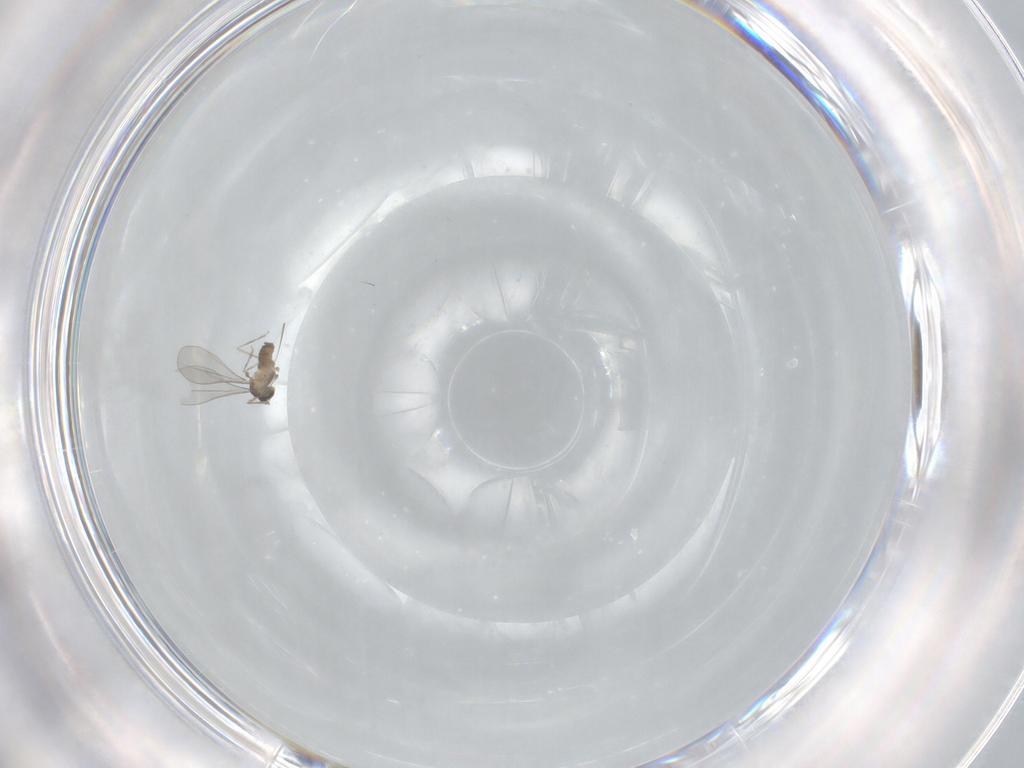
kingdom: Animalia
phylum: Arthropoda
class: Insecta
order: Diptera
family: Cecidomyiidae
